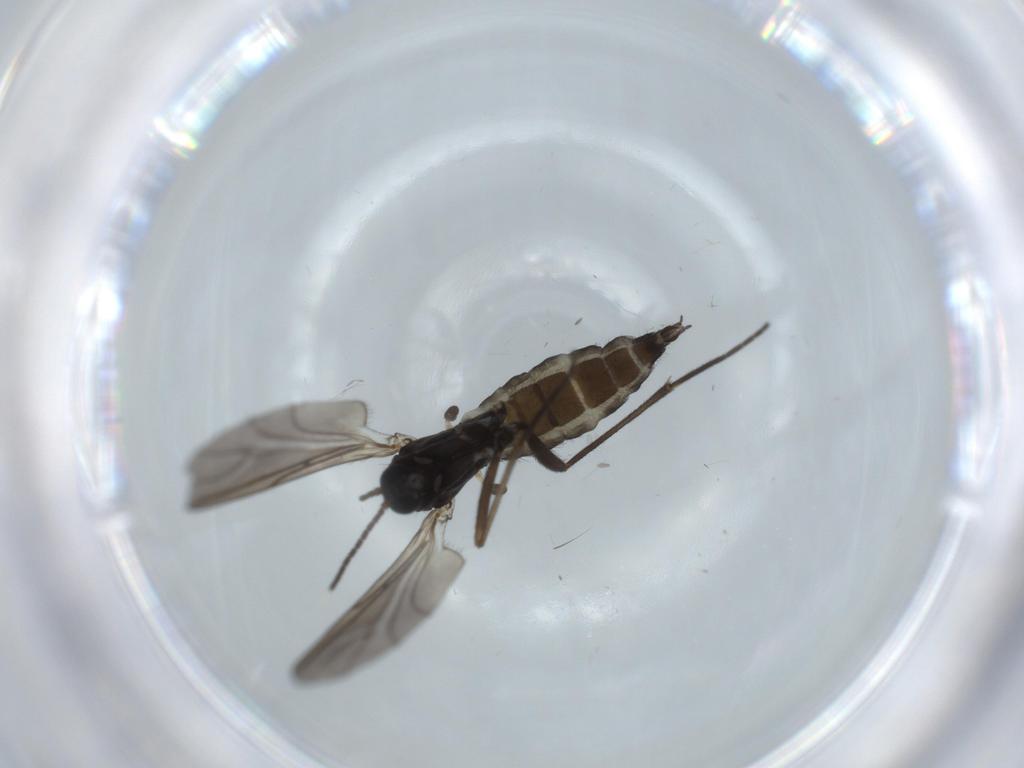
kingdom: Animalia
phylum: Arthropoda
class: Insecta
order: Diptera
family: Sciaridae
